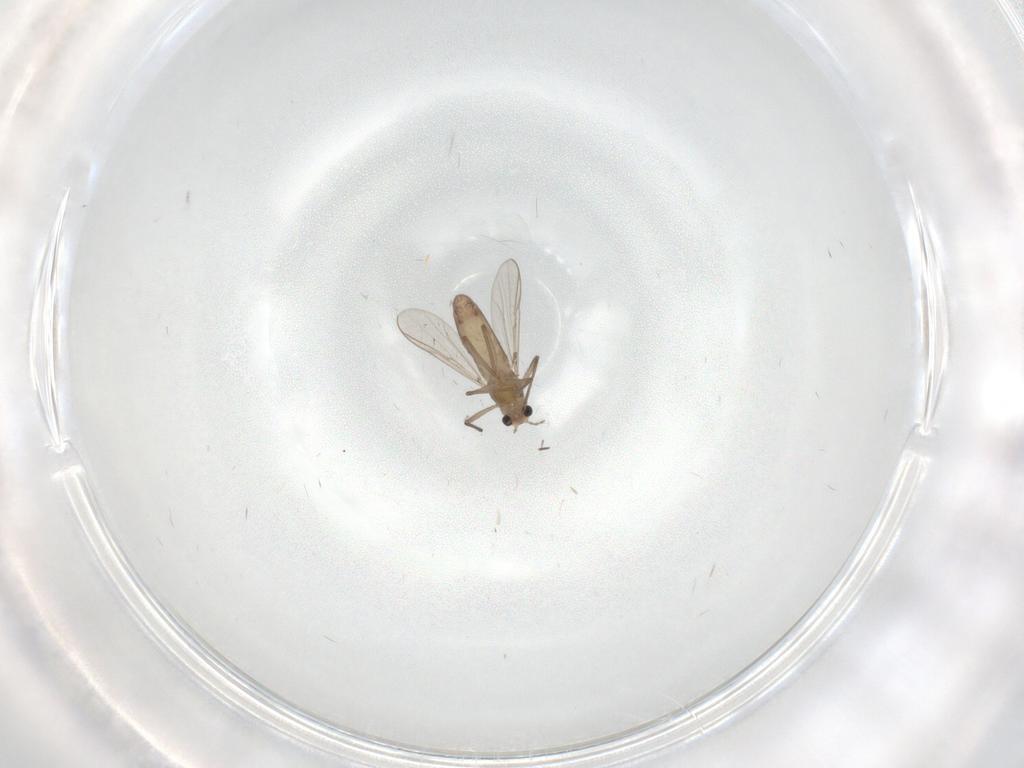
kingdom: Animalia
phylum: Arthropoda
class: Insecta
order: Diptera
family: Chironomidae
